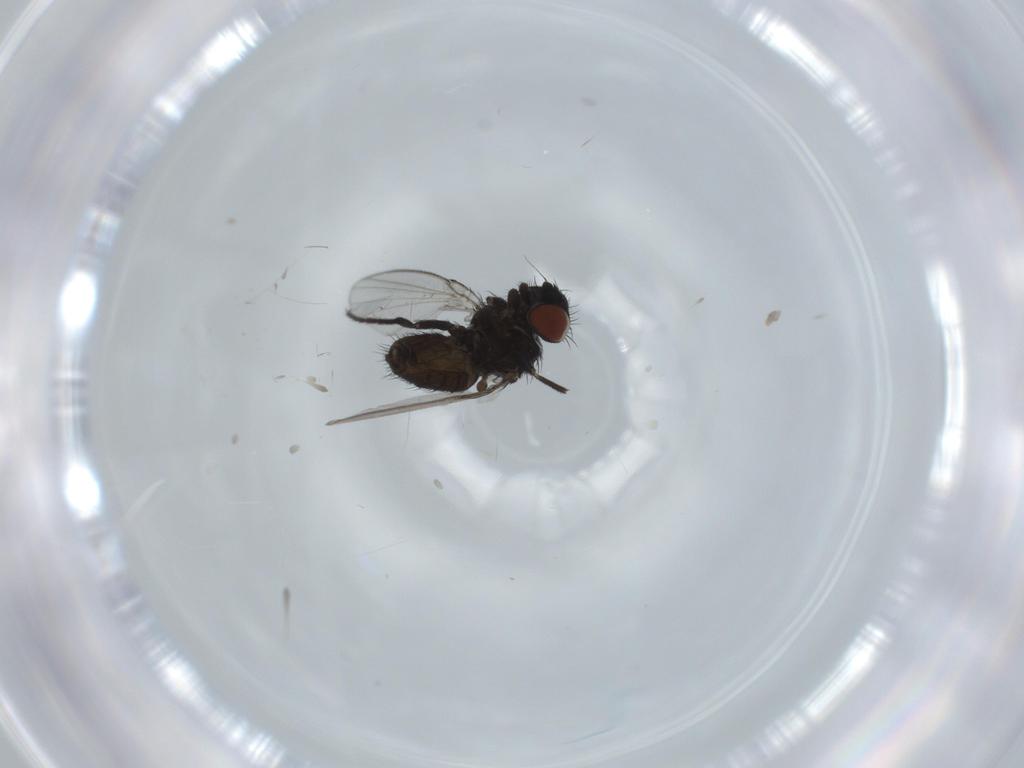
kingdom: Animalia
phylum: Arthropoda
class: Insecta
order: Diptera
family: Milichiidae
